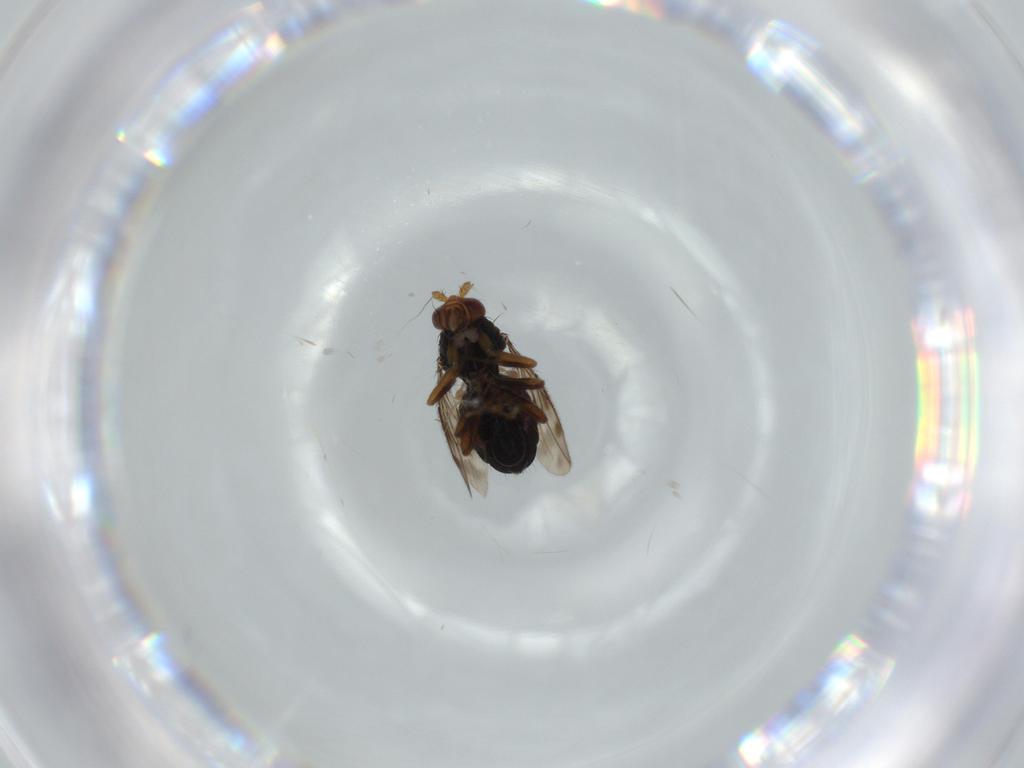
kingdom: Animalia
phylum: Arthropoda
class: Insecta
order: Diptera
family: Sphaeroceridae
